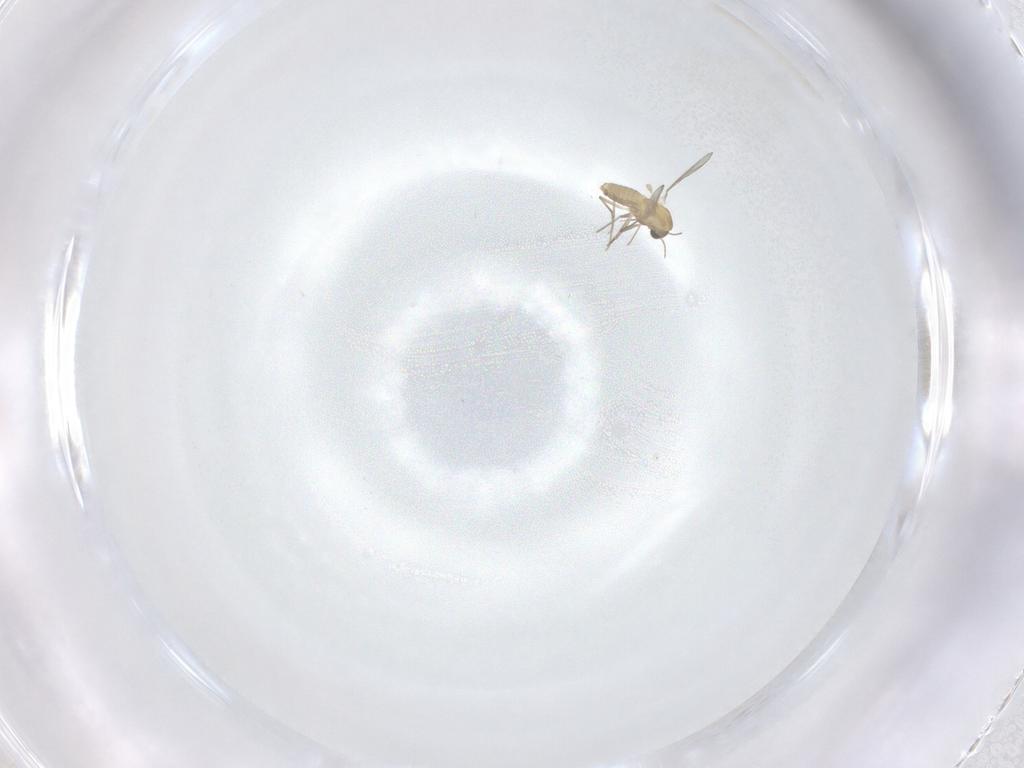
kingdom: Animalia
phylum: Arthropoda
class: Insecta
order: Diptera
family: Chironomidae
